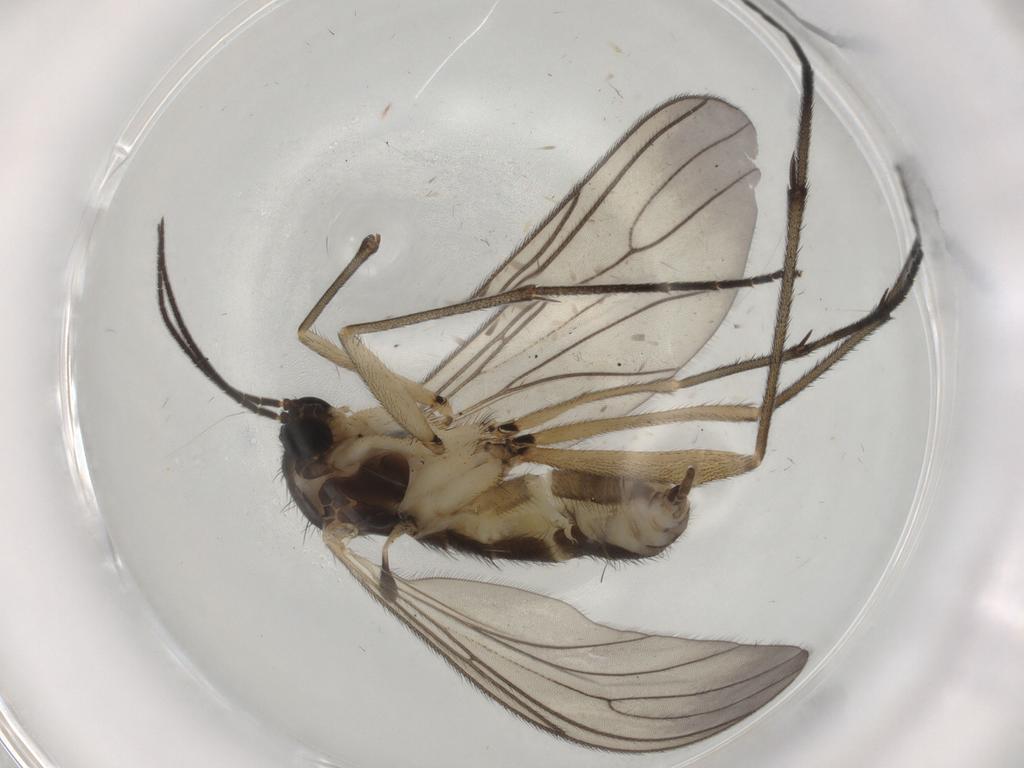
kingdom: Animalia
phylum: Arthropoda
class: Insecta
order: Diptera
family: Sciaridae
